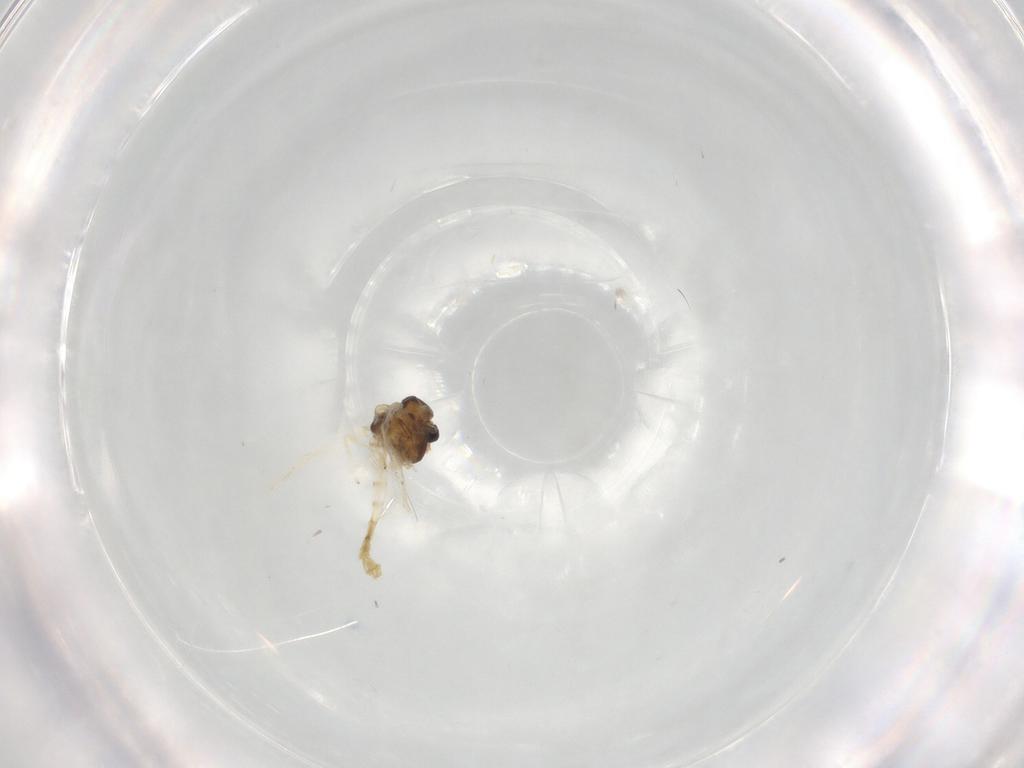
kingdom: Animalia
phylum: Arthropoda
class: Insecta
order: Diptera
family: Chironomidae
